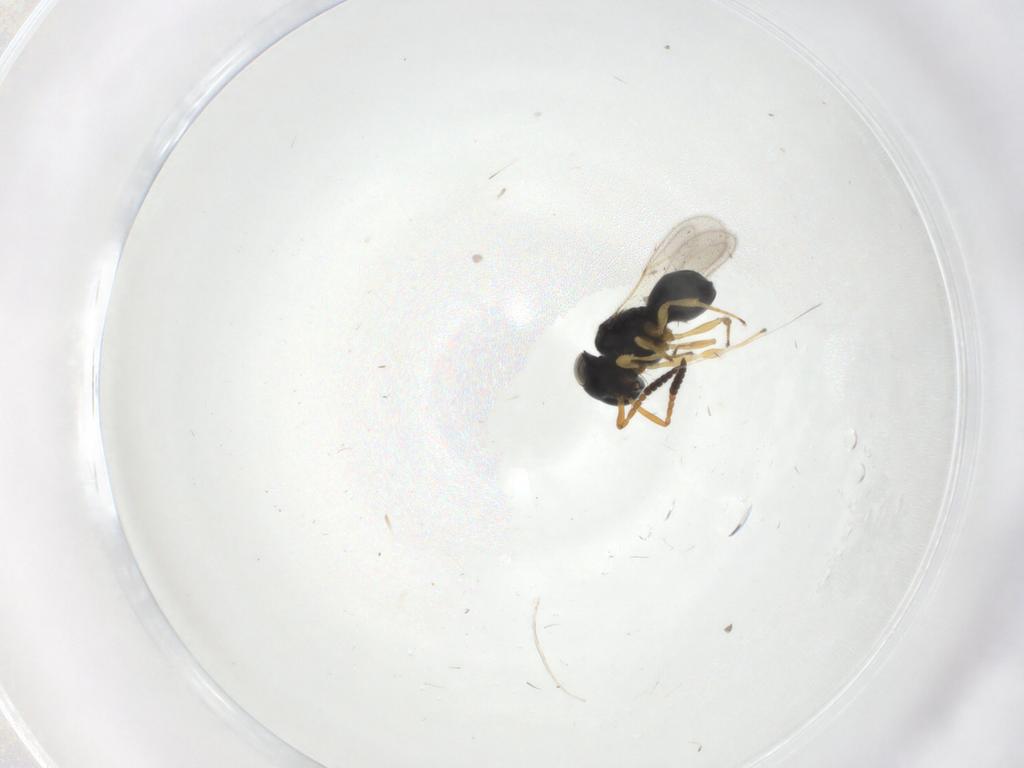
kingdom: Animalia
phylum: Arthropoda
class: Insecta
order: Hymenoptera
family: Scelionidae
